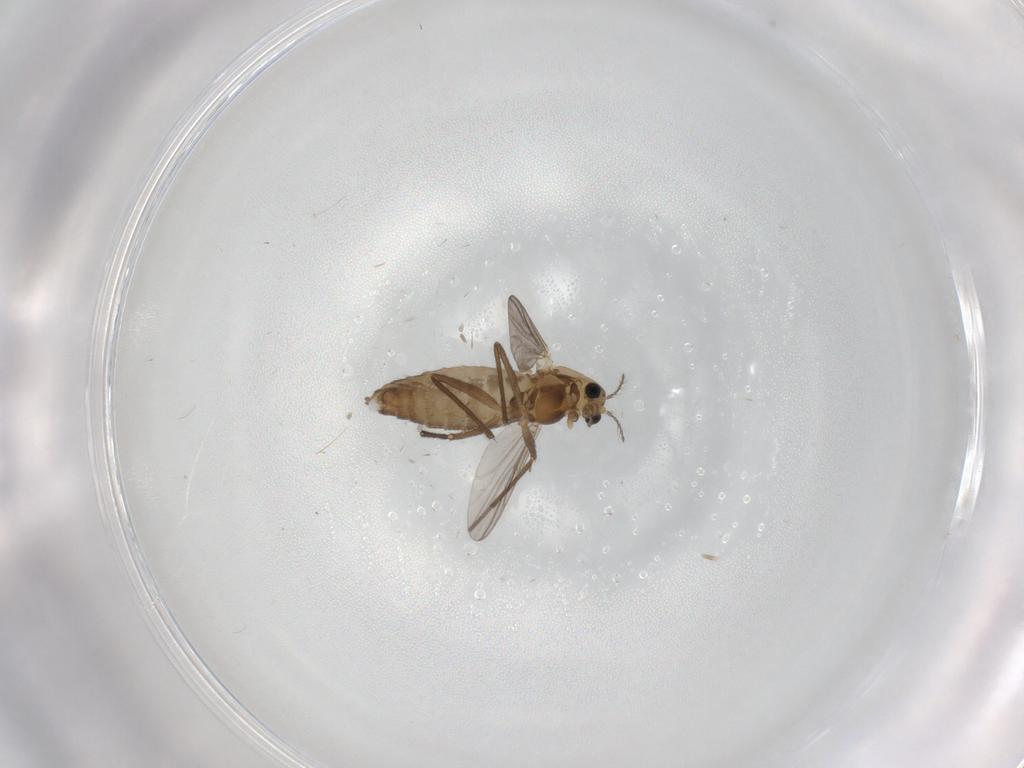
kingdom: Animalia
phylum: Arthropoda
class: Insecta
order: Diptera
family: Chironomidae
